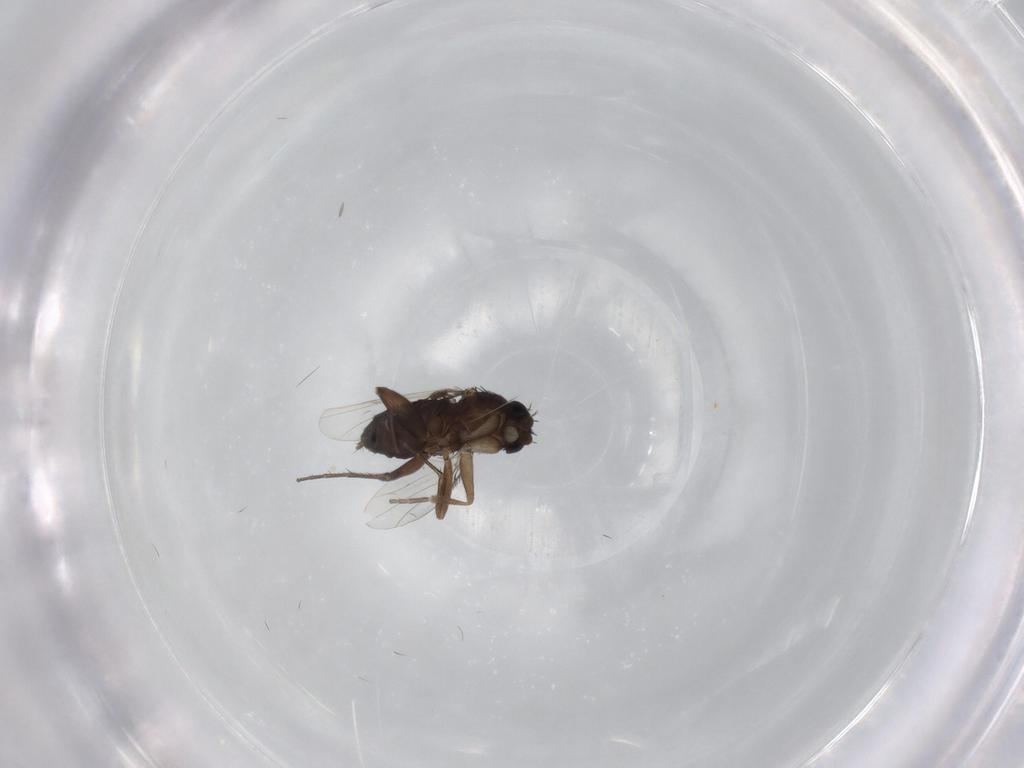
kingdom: Animalia
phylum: Arthropoda
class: Insecta
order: Diptera
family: Phoridae
